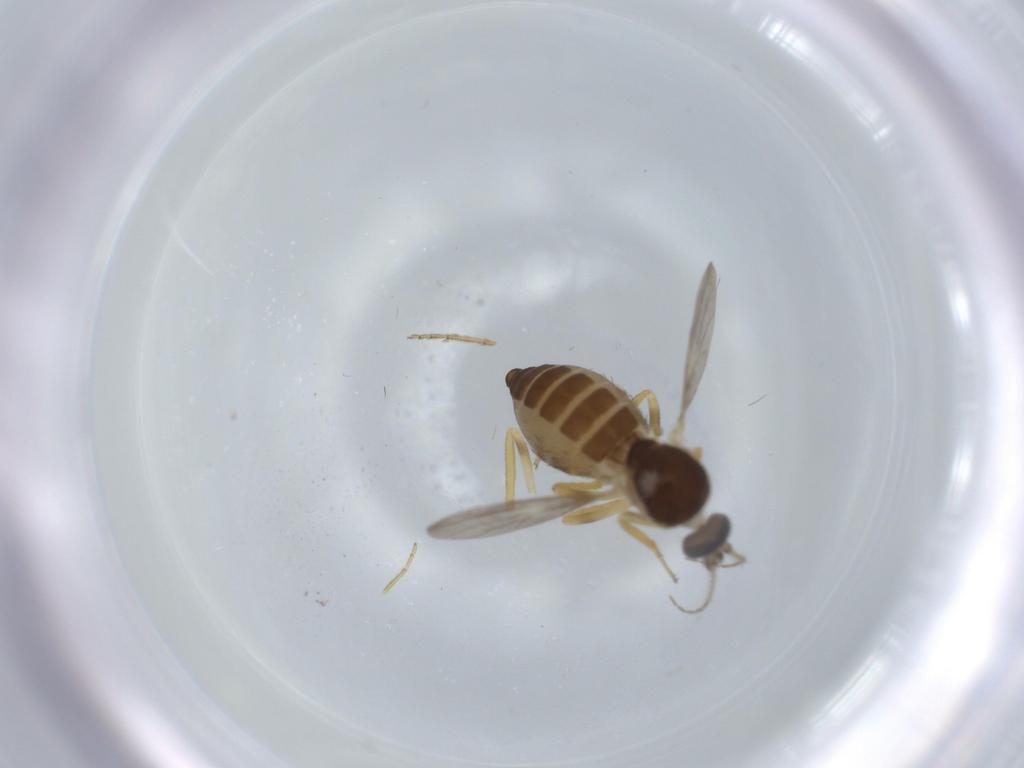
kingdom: Animalia
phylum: Arthropoda
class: Insecta
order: Diptera
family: Ceratopogonidae
